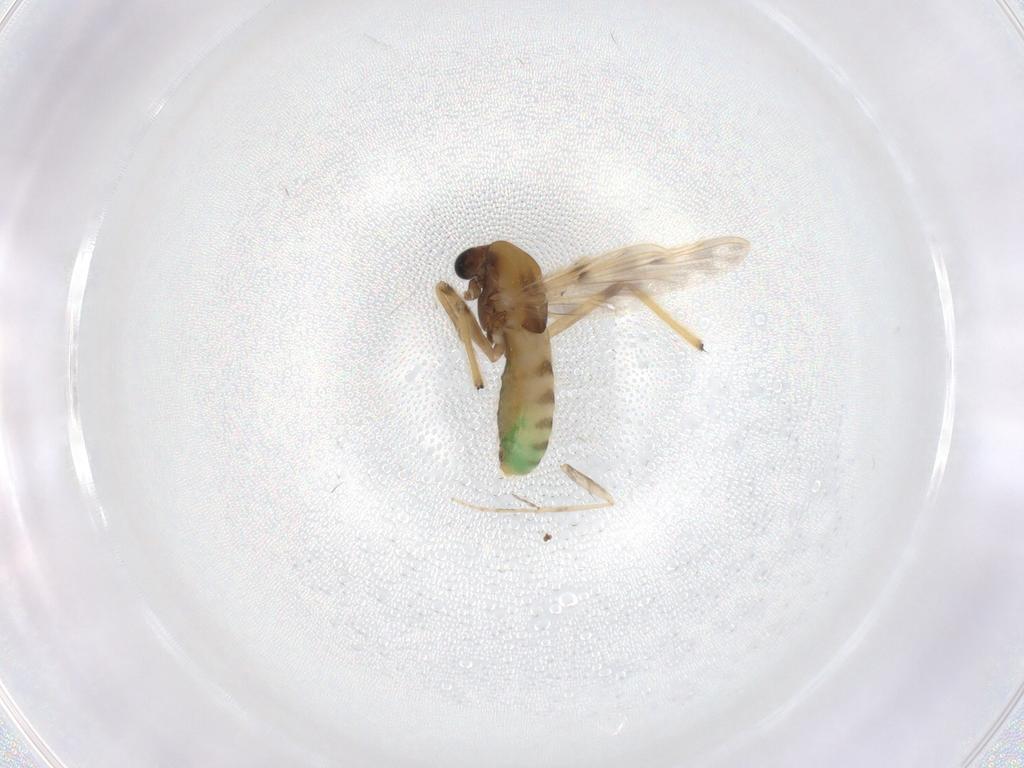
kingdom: Animalia
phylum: Arthropoda
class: Insecta
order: Diptera
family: Chironomidae
